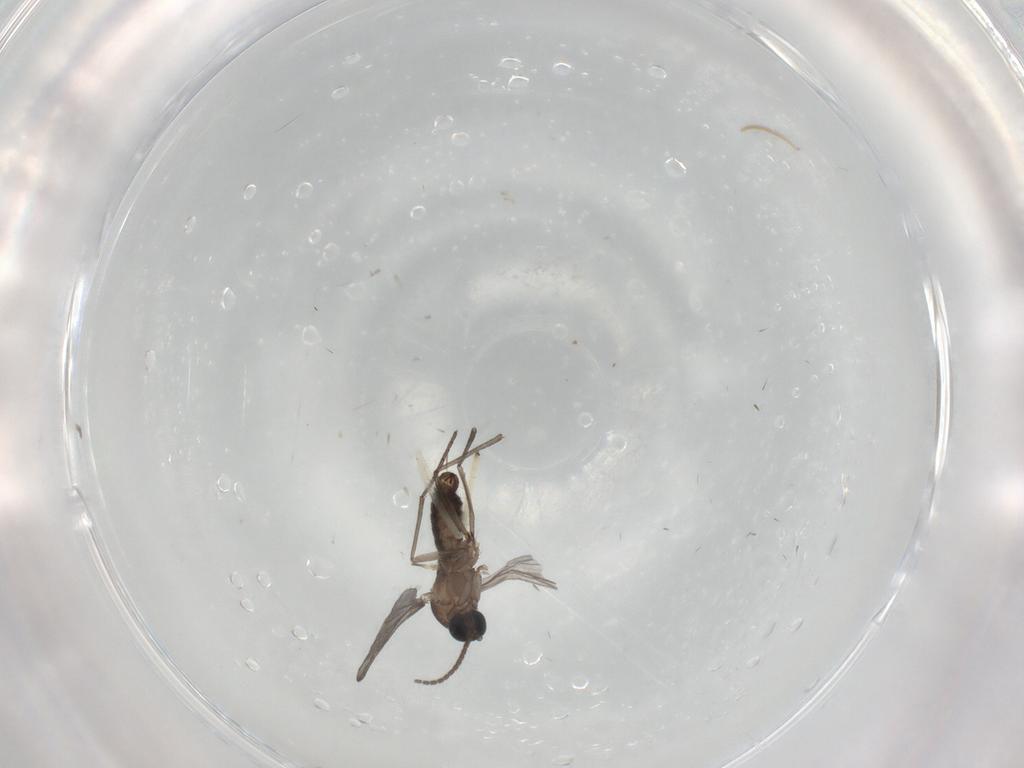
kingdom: Animalia
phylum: Arthropoda
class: Insecta
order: Diptera
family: Sciaridae
